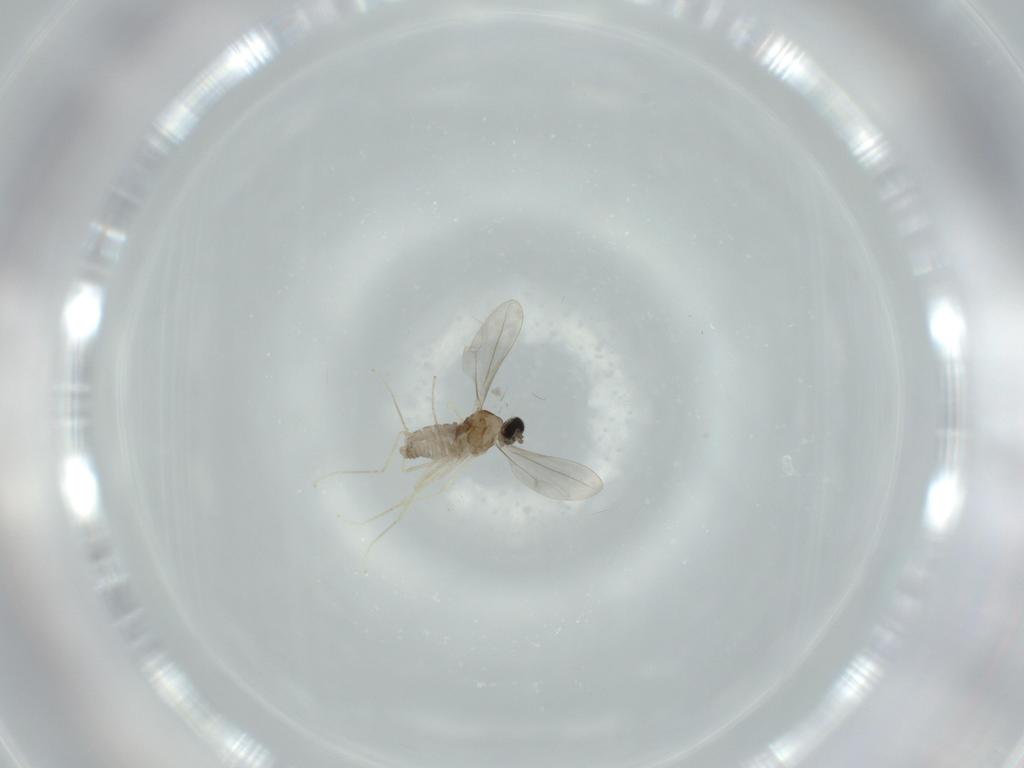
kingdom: Animalia
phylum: Arthropoda
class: Insecta
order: Diptera
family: Cecidomyiidae
